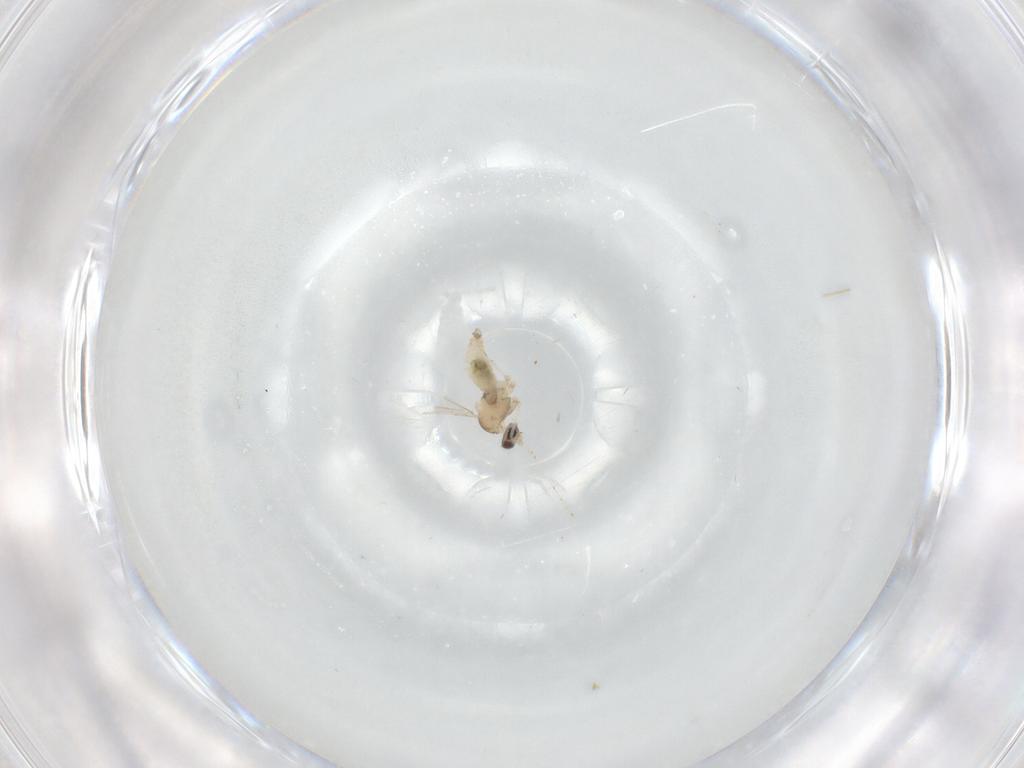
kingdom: Animalia
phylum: Arthropoda
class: Insecta
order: Diptera
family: Cecidomyiidae
